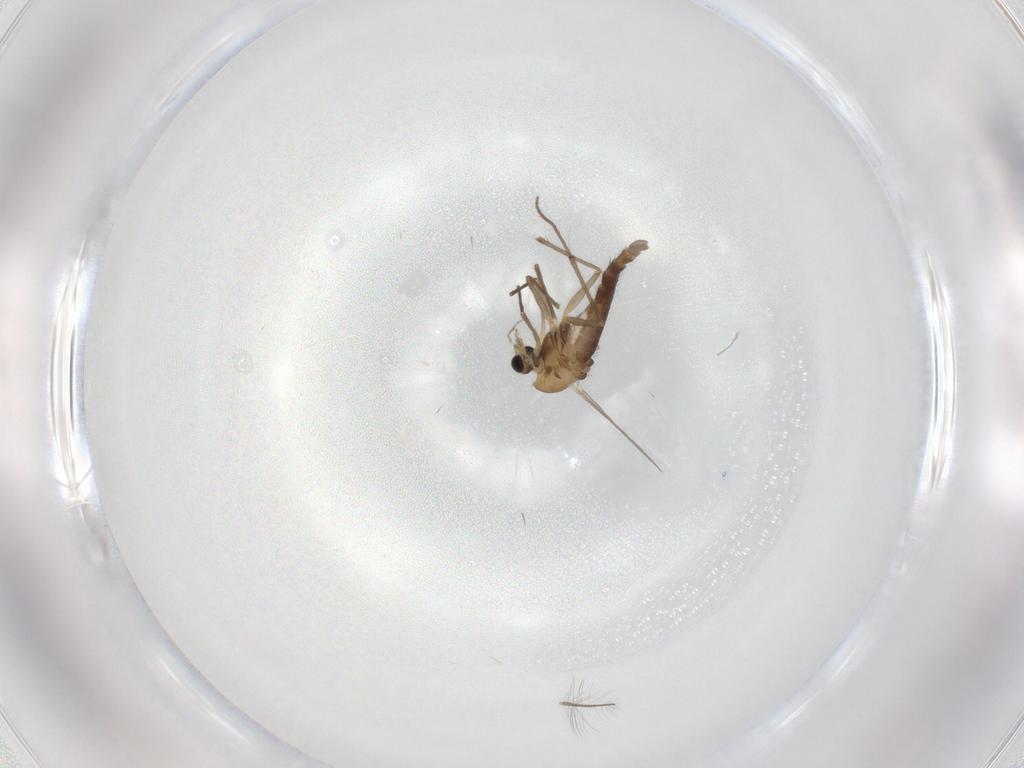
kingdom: Animalia
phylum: Arthropoda
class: Insecta
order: Diptera
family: Chironomidae
